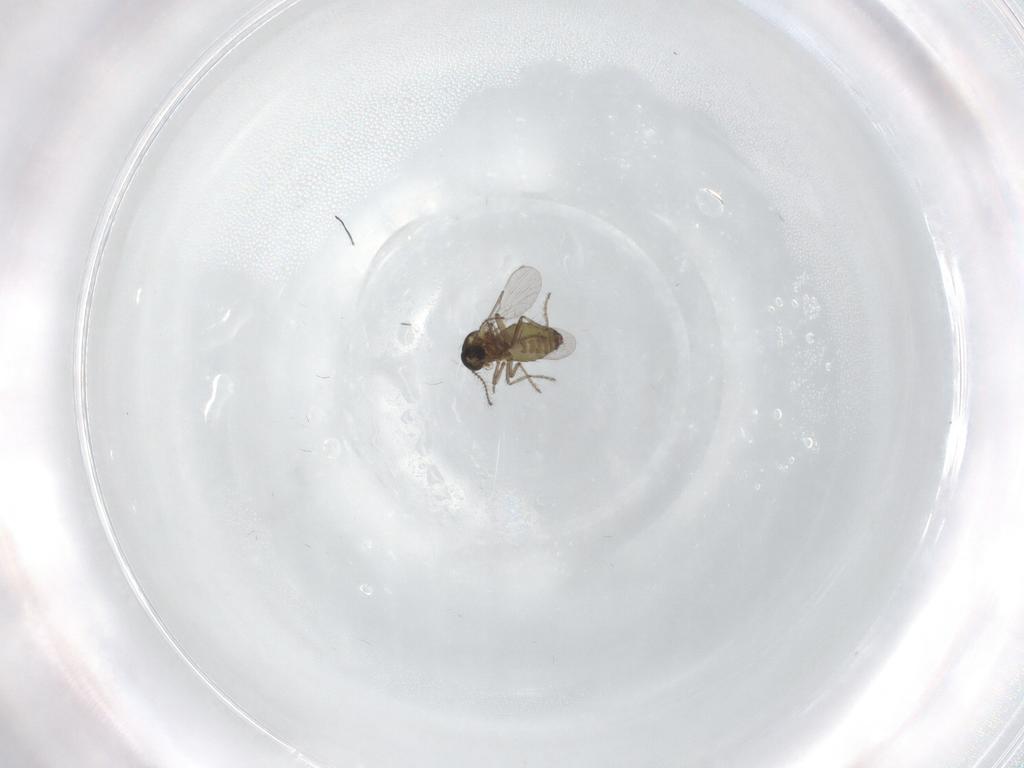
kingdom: Animalia
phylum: Arthropoda
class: Insecta
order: Diptera
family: Ceratopogonidae
